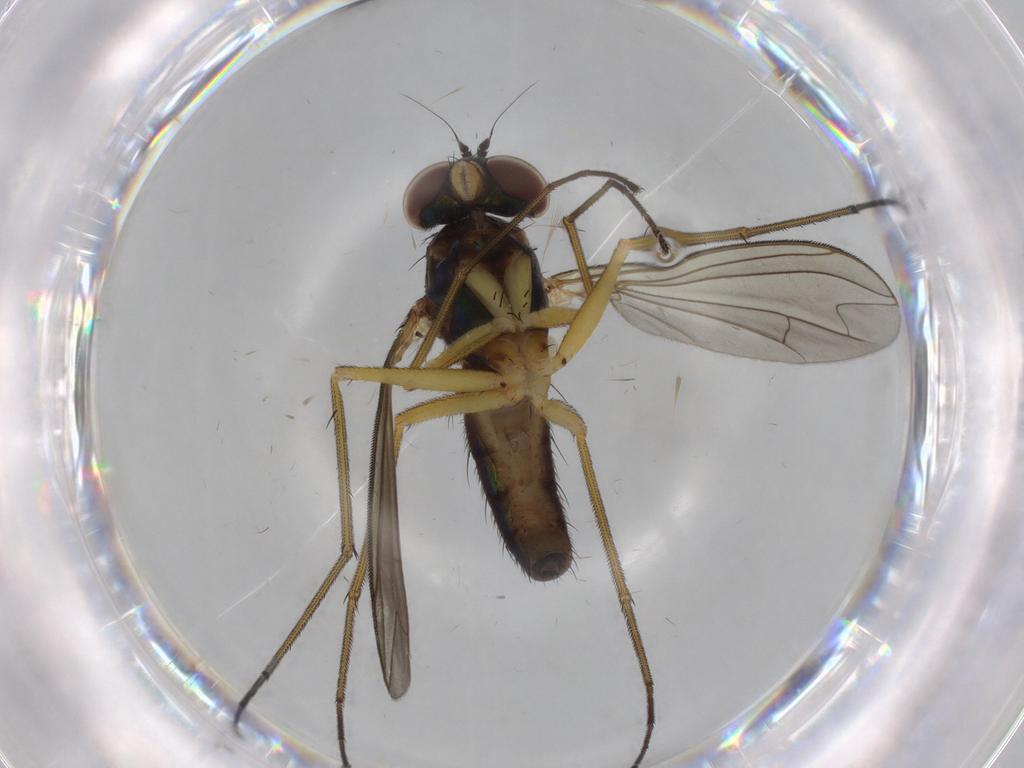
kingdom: Animalia
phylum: Arthropoda
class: Insecta
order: Diptera
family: Dolichopodidae
